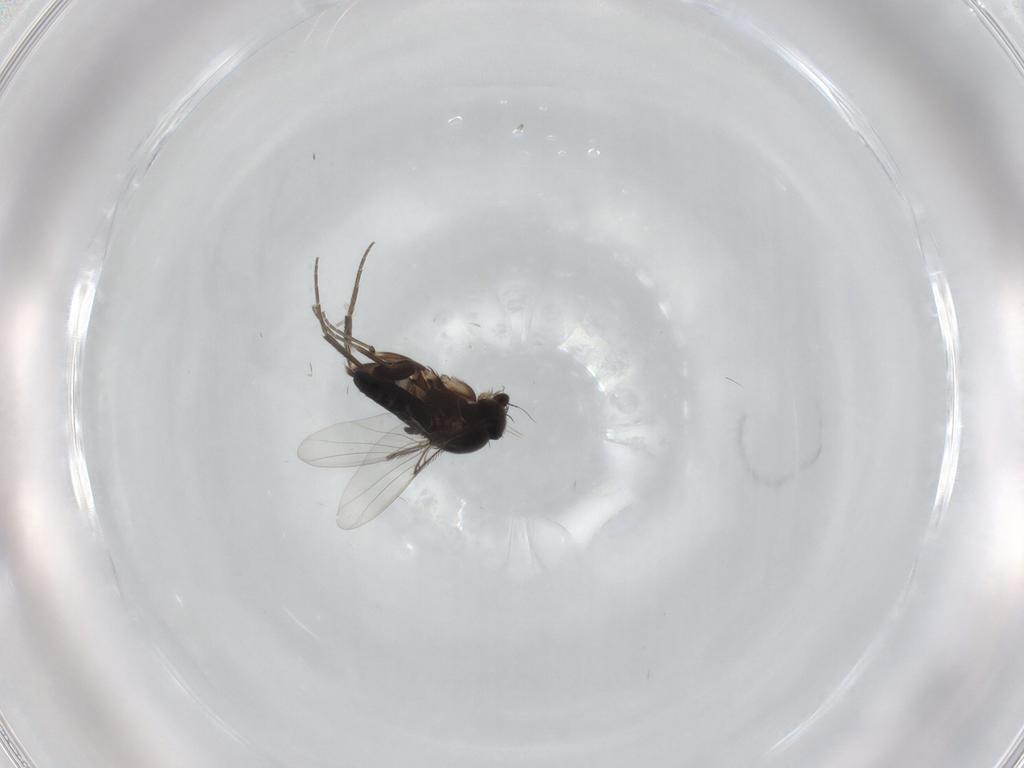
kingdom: Animalia
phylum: Arthropoda
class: Insecta
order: Diptera
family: Phoridae
